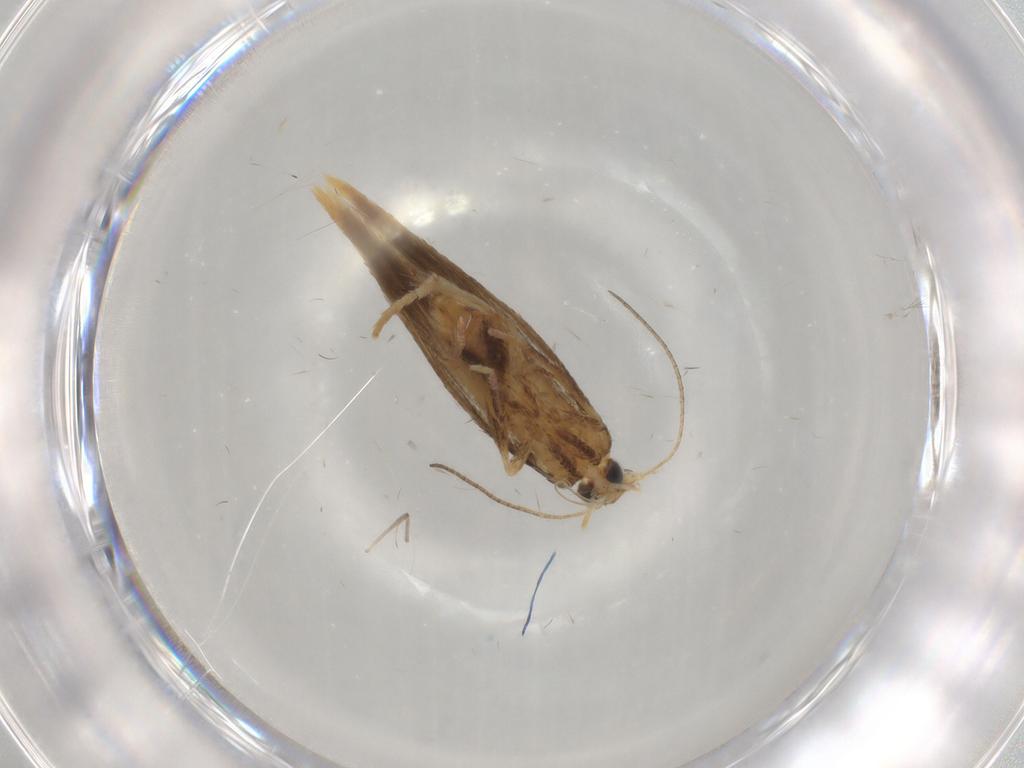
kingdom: Animalia
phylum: Arthropoda
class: Insecta
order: Lepidoptera
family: Tischeriidae
